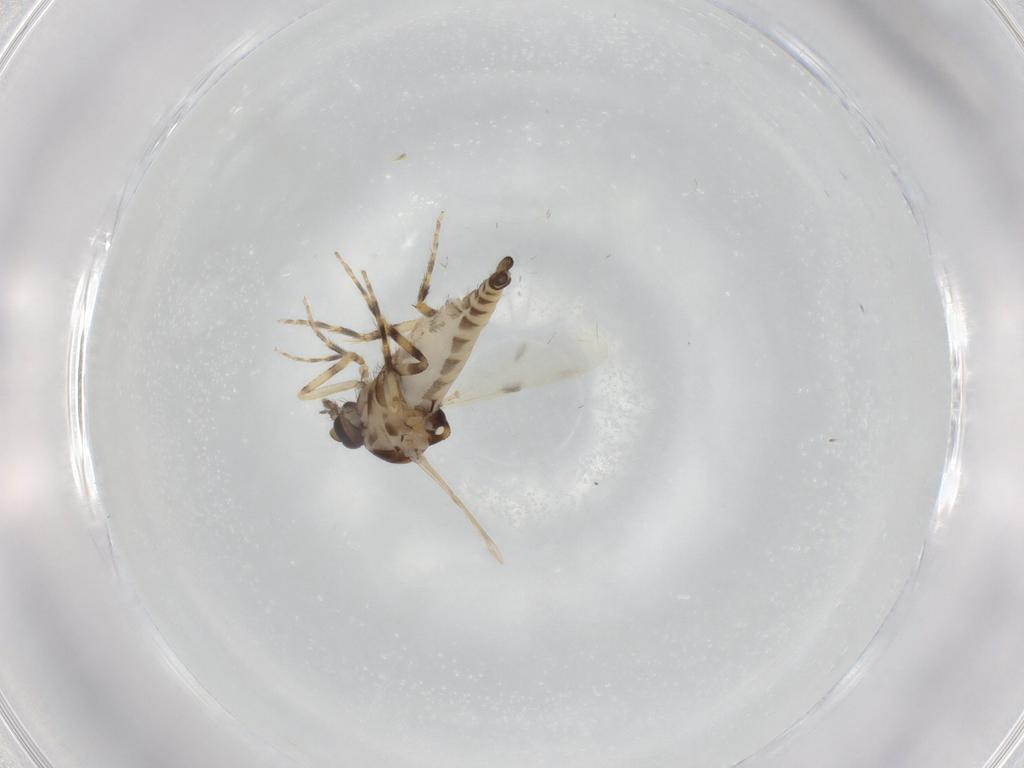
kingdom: Animalia
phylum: Arthropoda
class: Insecta
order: Diptera
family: Ceratopogonidae
